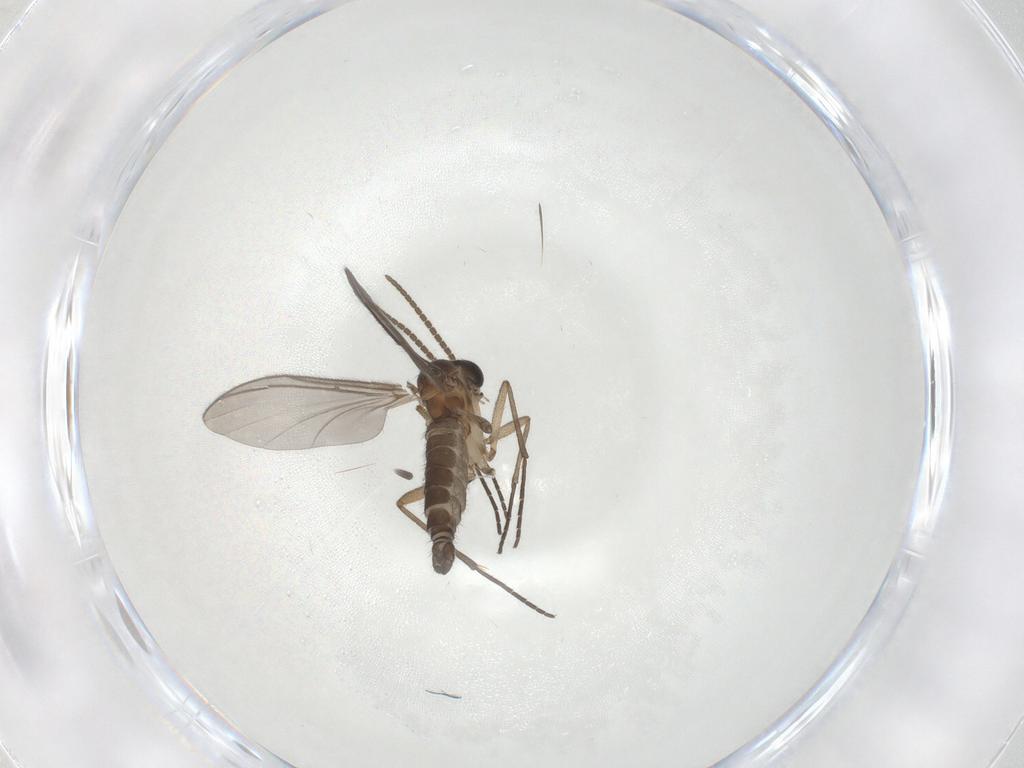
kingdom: Animalia
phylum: Arthropoda
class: Insecta
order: Diptera
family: Sciaridae
